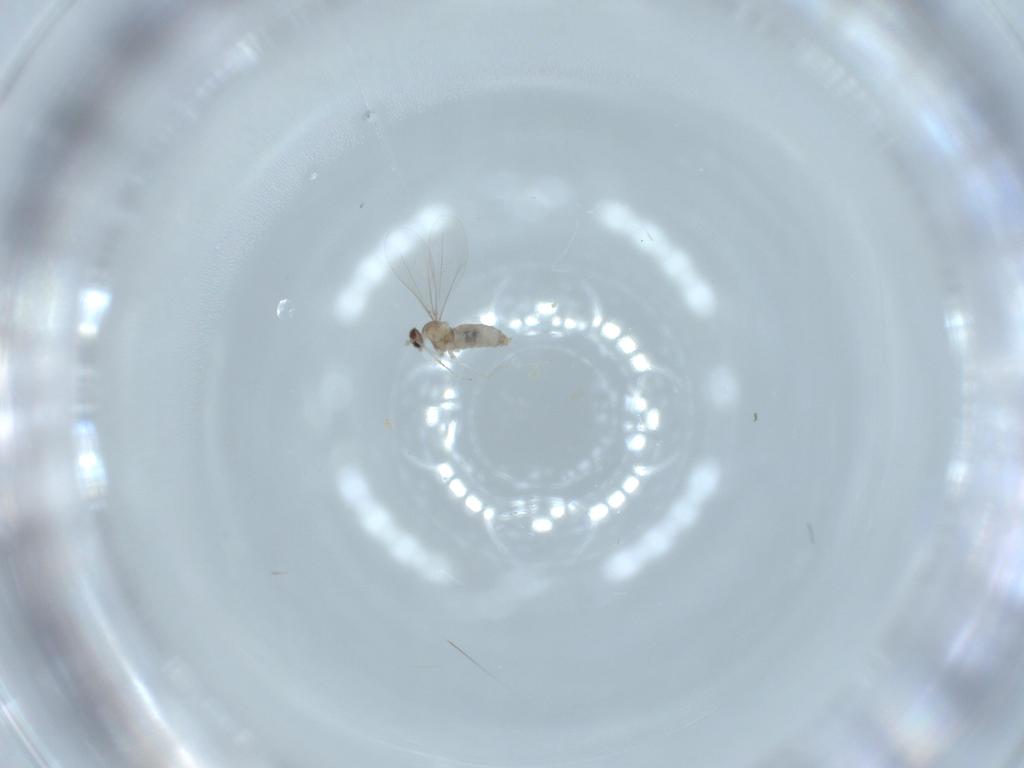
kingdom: Animalia
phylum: Arthropoda
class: Insecta
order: Diptera
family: Cecidomyiidae
